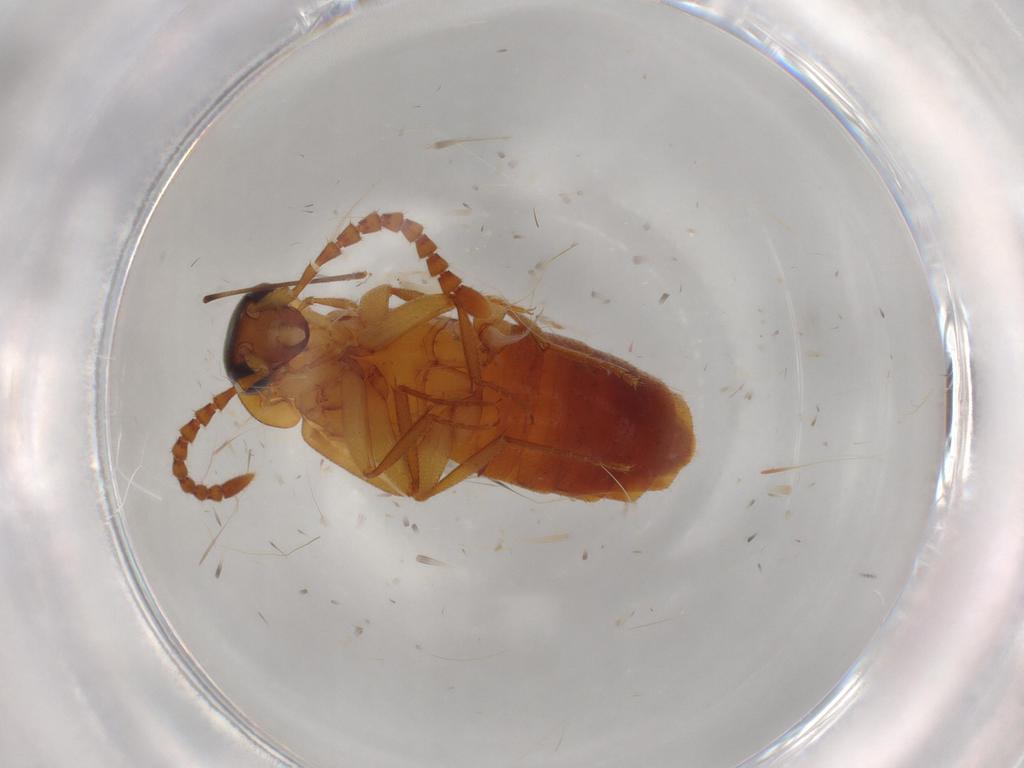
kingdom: Animalia
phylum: Arthropoda
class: Insecta
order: Coleoptera
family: Staphylinidae
